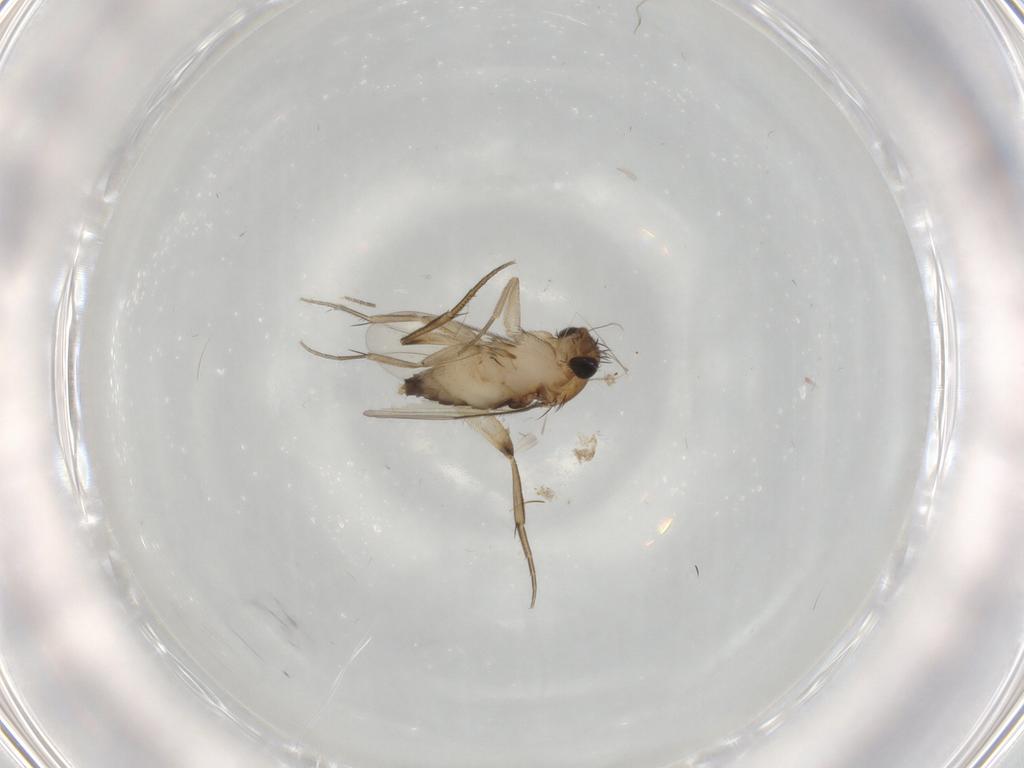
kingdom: Animalia
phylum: Arthropoda
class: Insecta
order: Diptera
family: Phoridae
